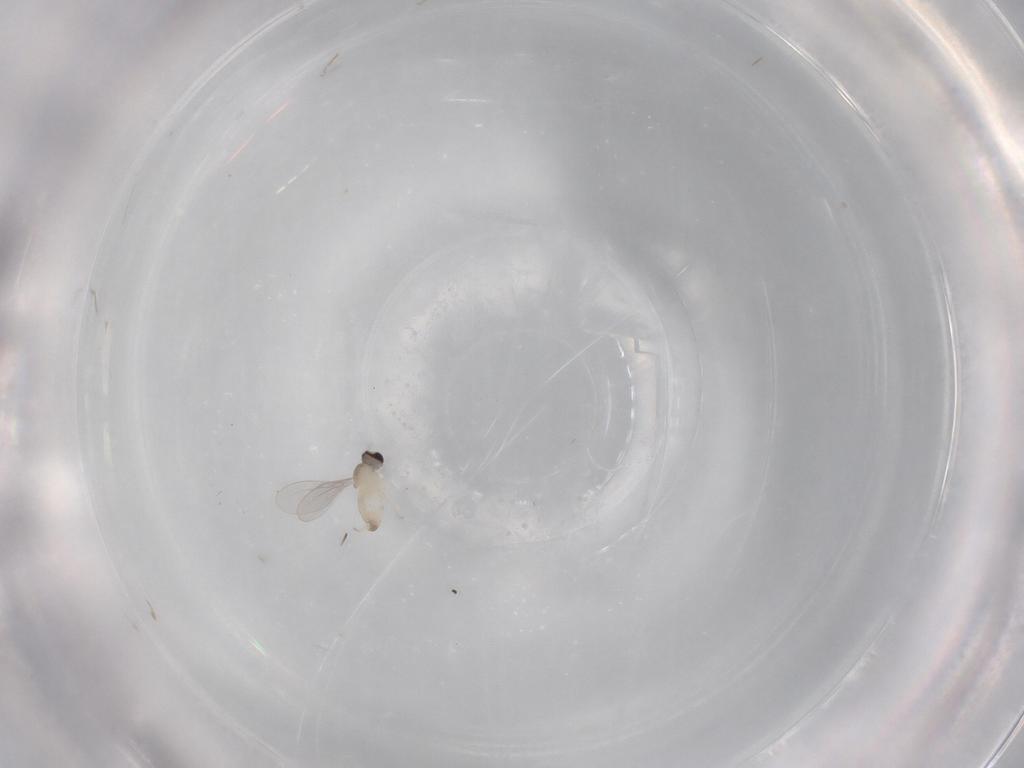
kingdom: Animalia
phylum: Arthropoda
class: Insecta
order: Diptera
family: Cecidomyiidae
